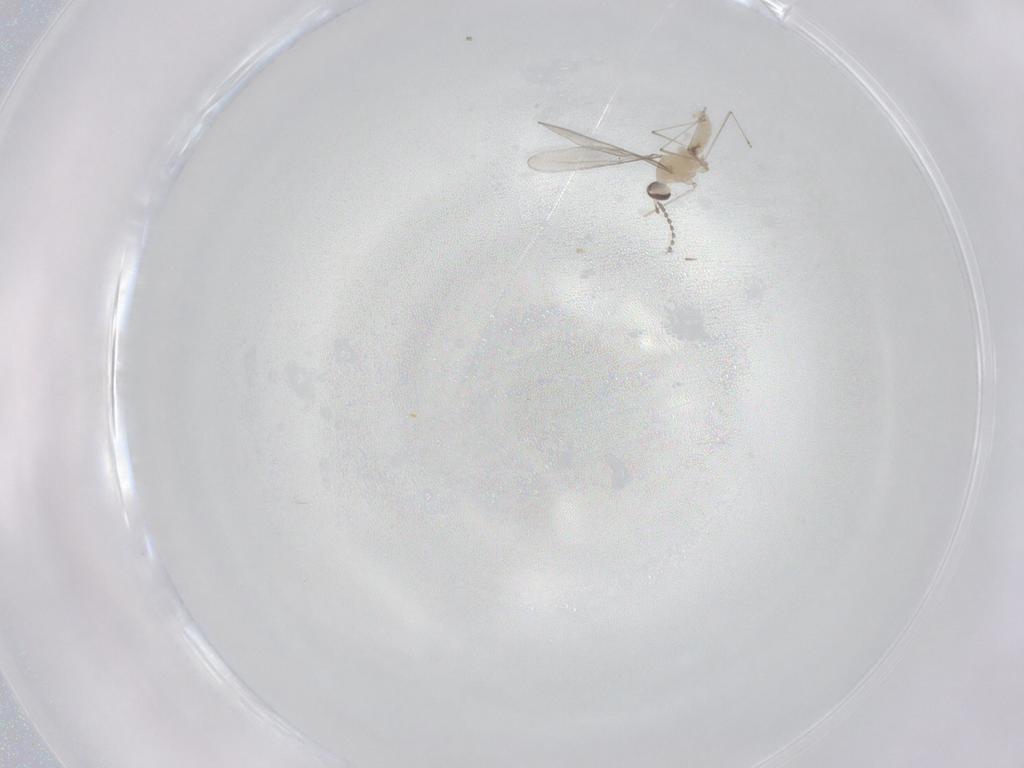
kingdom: Animalia
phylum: Arthropoda
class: Insecta
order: Diptera
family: Cecidomyiidae
